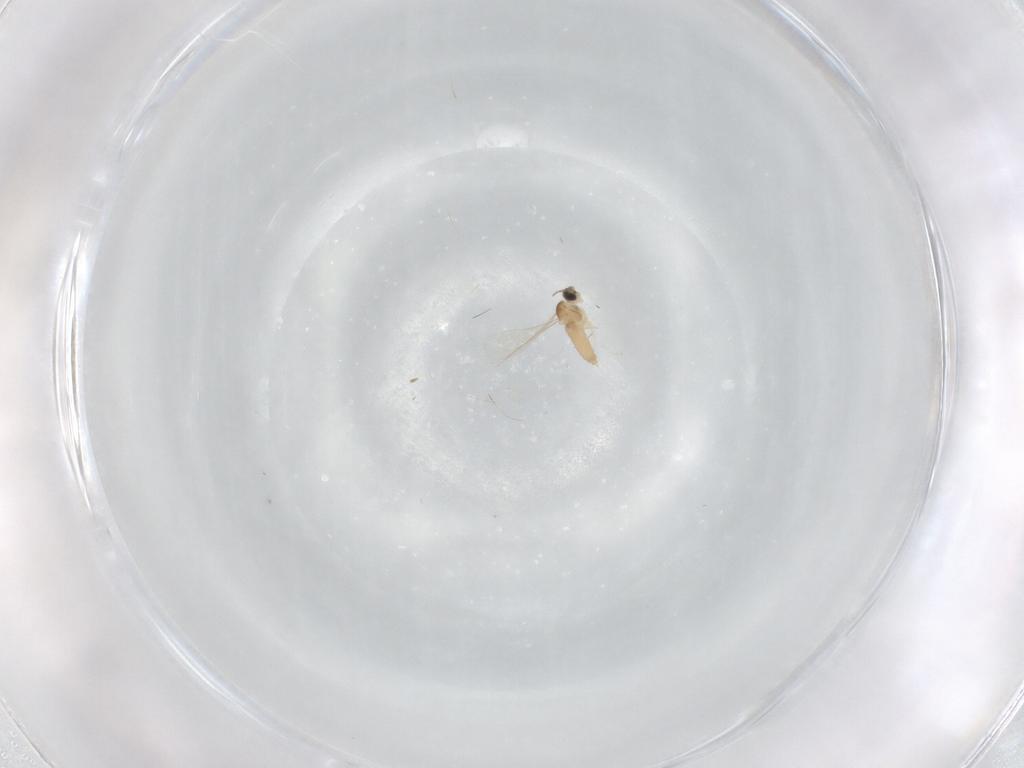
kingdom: Animalia
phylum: Arthropoda
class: Insecta
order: Diptera
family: Cecidomyiidae
